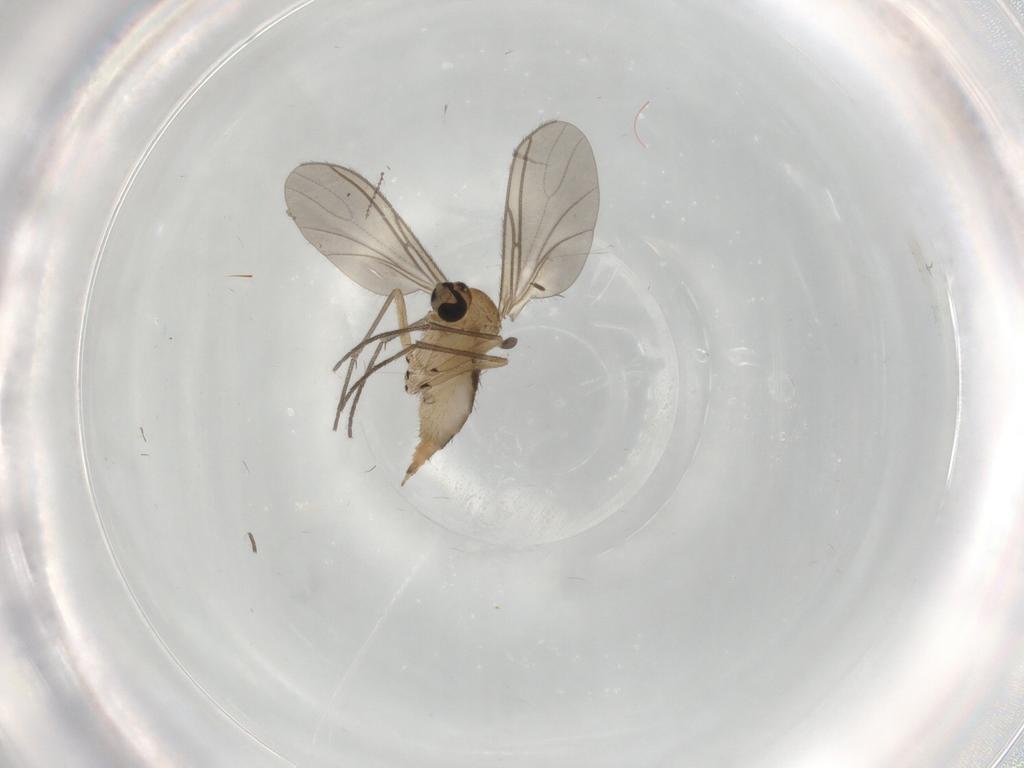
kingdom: Animalia
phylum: Arthropoda
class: Insecta
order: Diptera
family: Sciaridae
